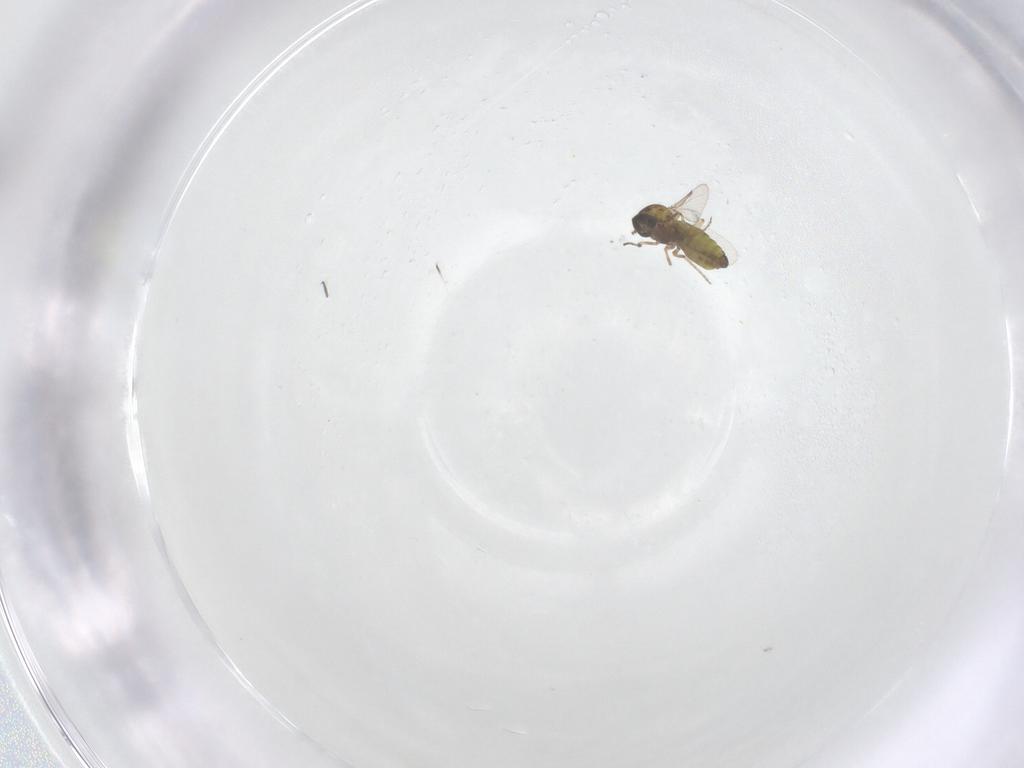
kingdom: Animalia
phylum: Arthropoda
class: Insecta
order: Diptera
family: Ceratopogonidae
